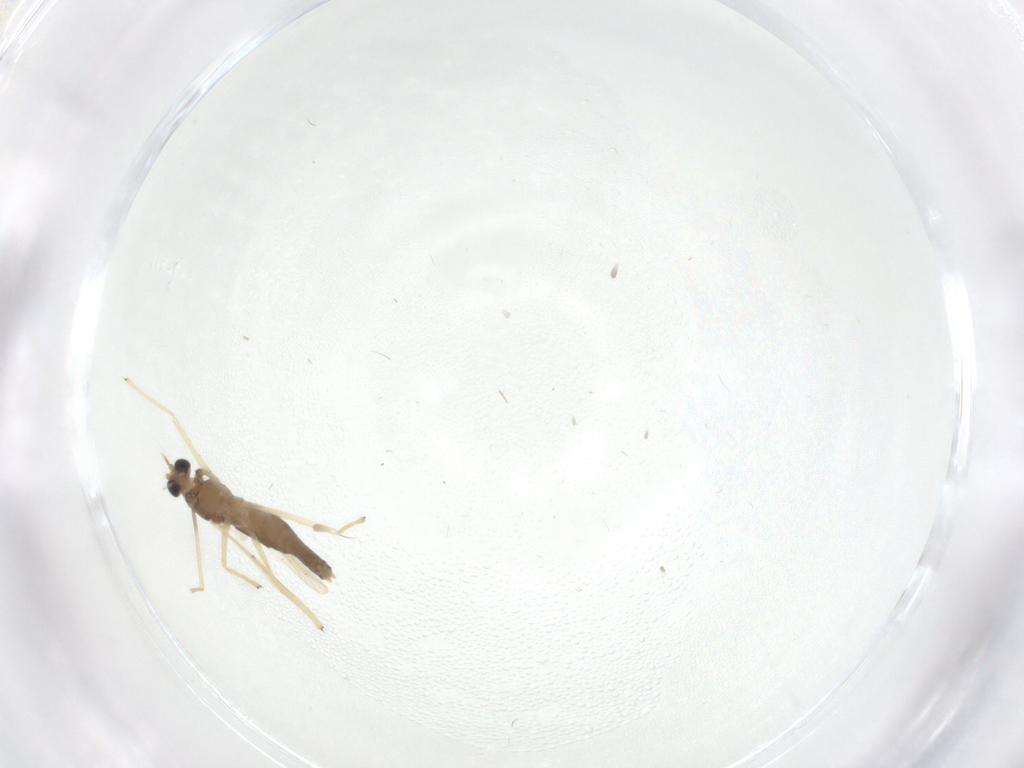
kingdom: Animalia
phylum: Arthropoda
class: Insecta
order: Diptera
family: Chironomidae
